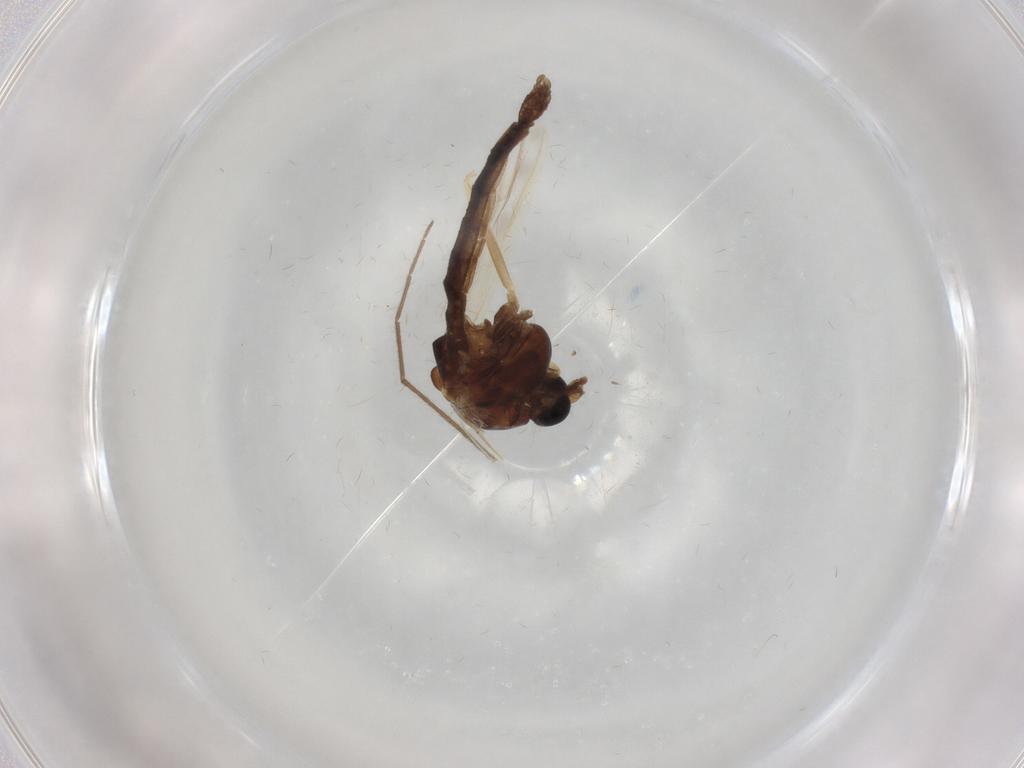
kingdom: Animalia
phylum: Arthropoda
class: Insecta
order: Diptera
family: Chironomidae
